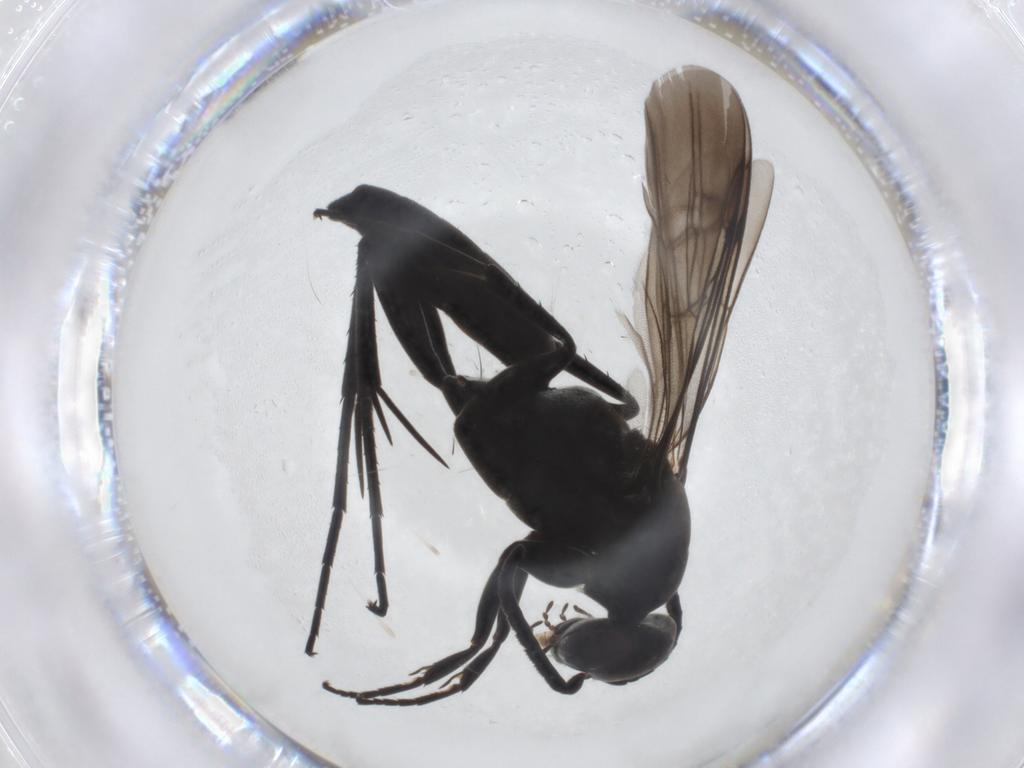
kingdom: Animalia
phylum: Arthropoda
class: Insecta
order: Hymenoptera
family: Pompilidae
